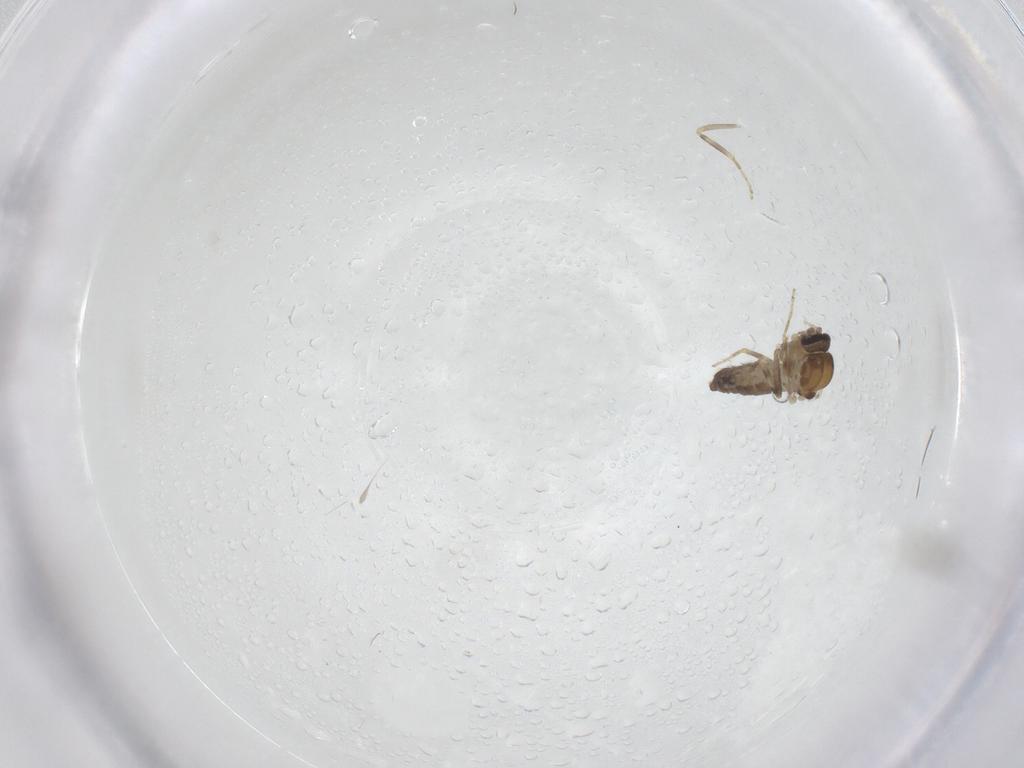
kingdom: Animalia
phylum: Arthropoda
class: Insecta
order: Diptera
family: Ceratopogonidae
